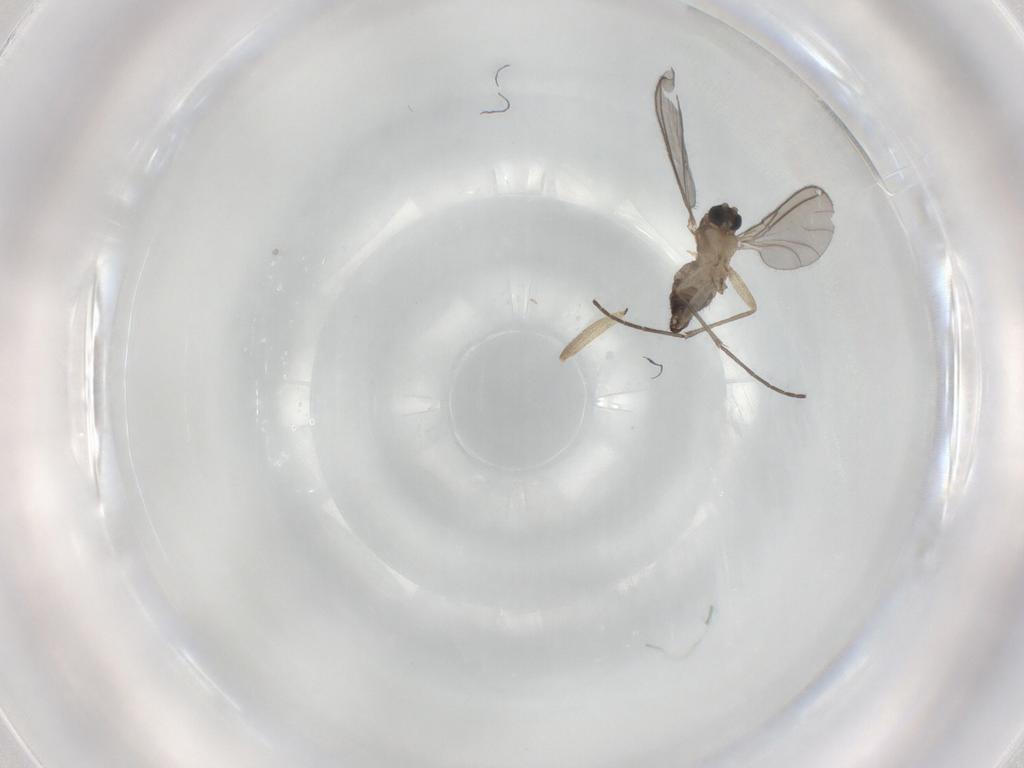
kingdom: Animalia
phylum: Arthropoda
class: Insecta
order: Diptera
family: Sciaridae
